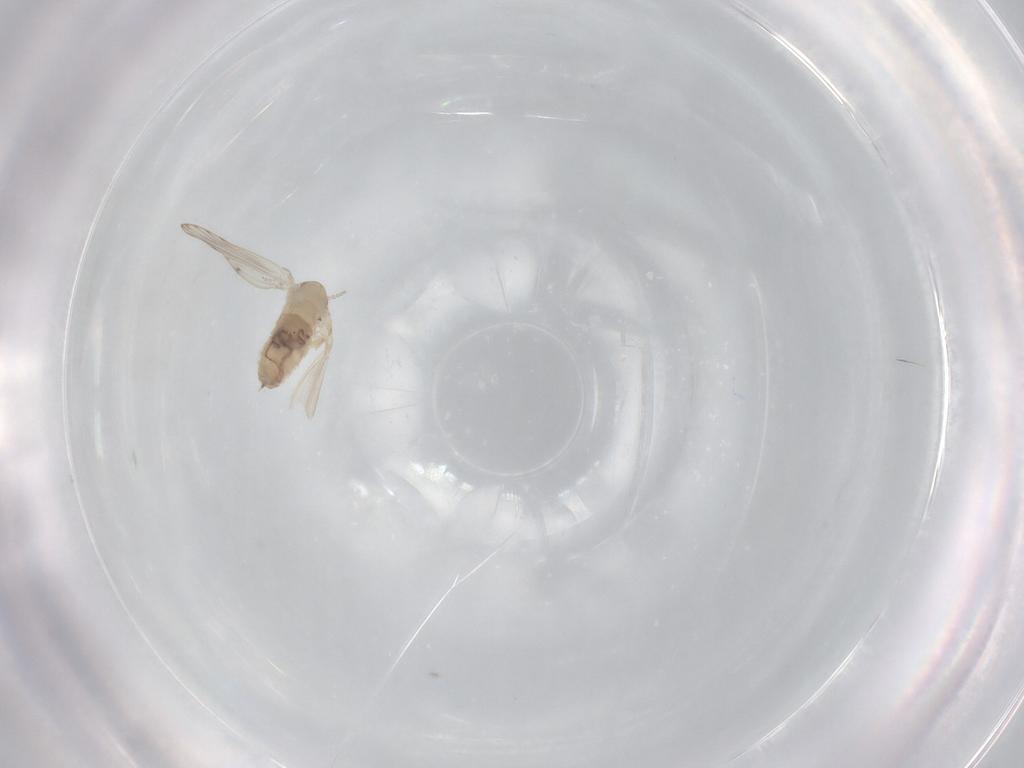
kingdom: Animalia
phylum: Arthropoda
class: Insecta
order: Diptera
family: Psychodidae
